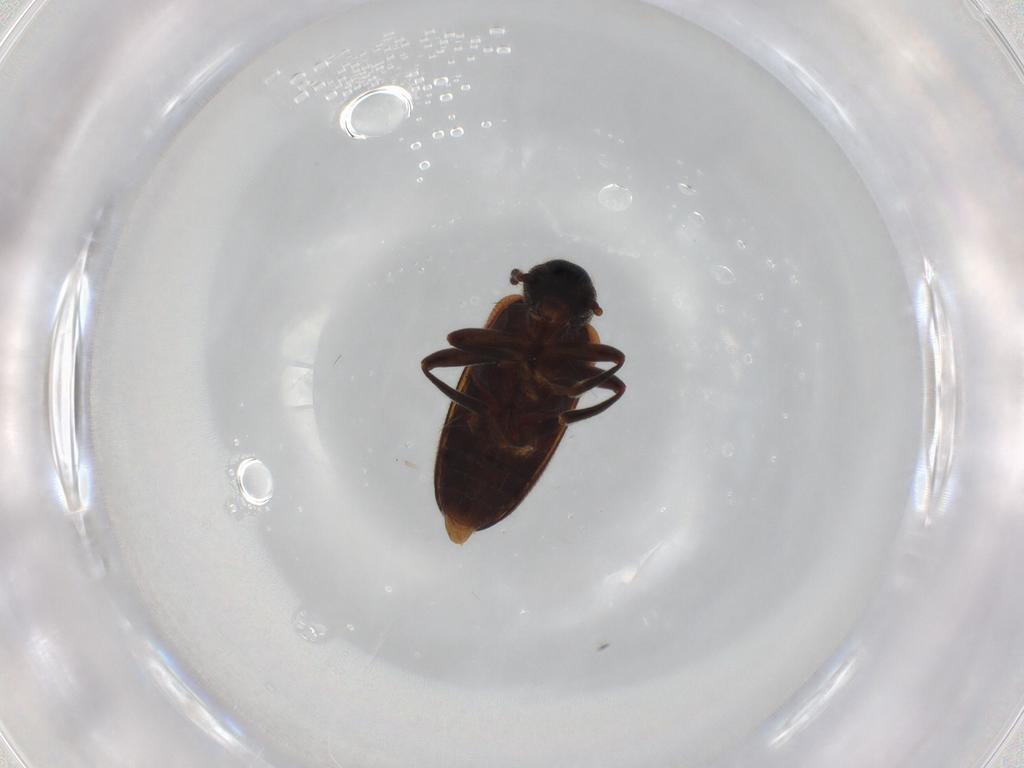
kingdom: Animalia
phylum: Arthropoda
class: Insecta
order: Coleoptera
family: Aderidae
